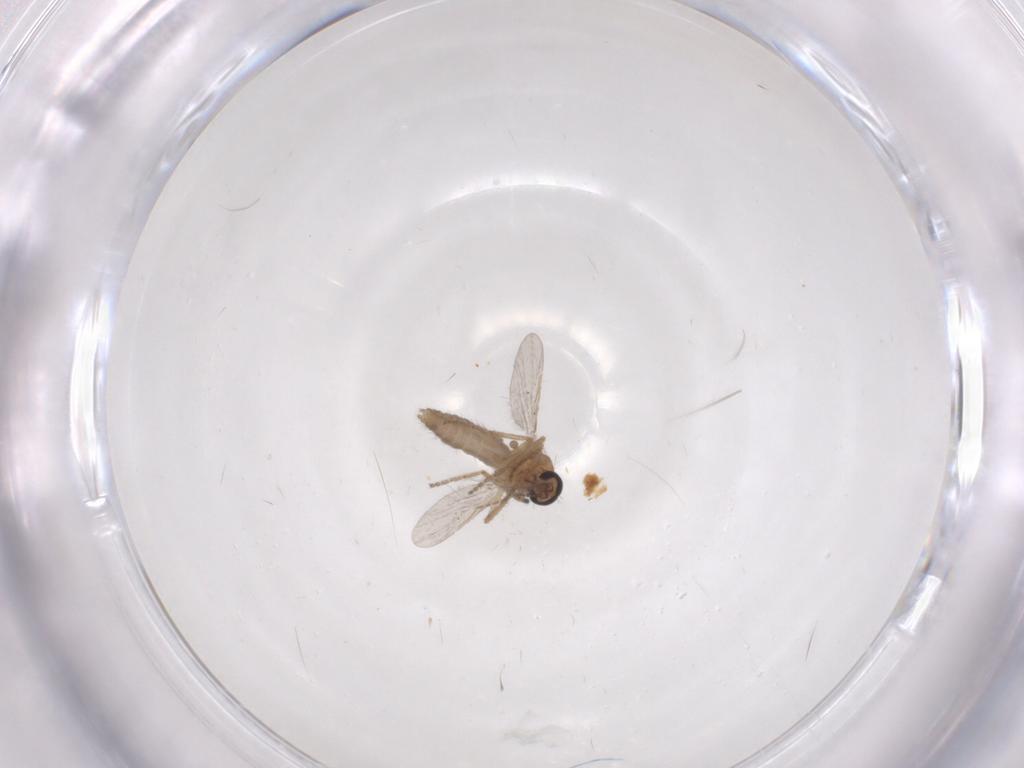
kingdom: Animalia
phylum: Arthropoda
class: Insecta
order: Diptera
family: Ceratopogonidae
